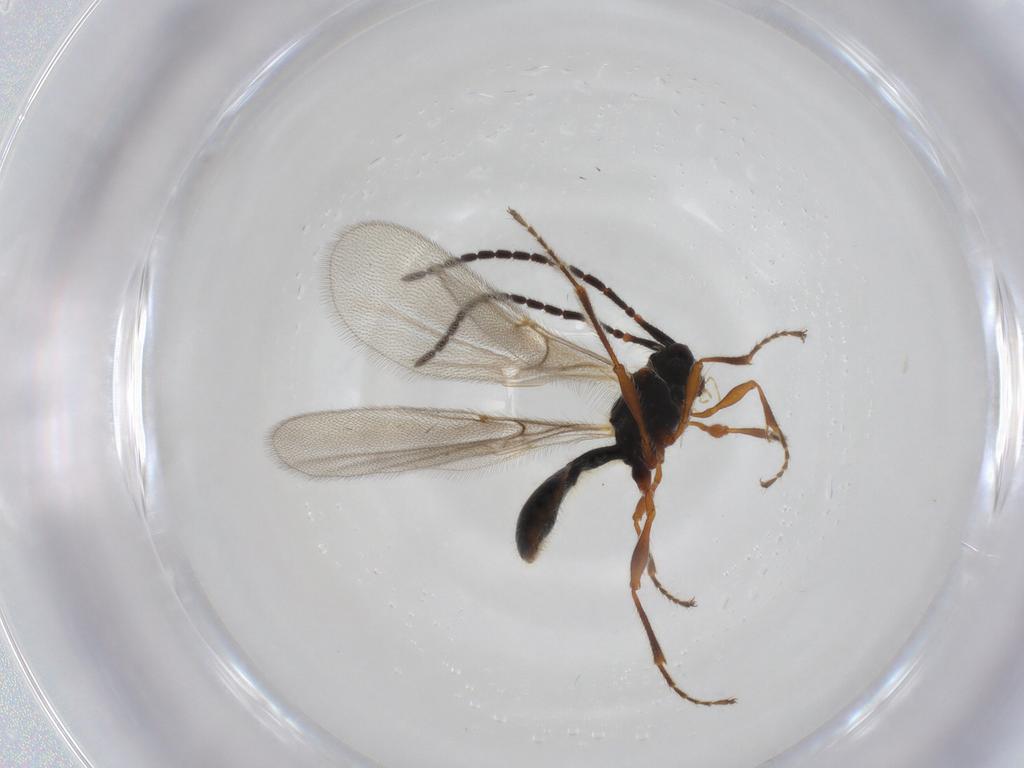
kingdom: Animalia
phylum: Arthropoda
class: Insecta
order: Hymenoptera
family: Diapriidae
